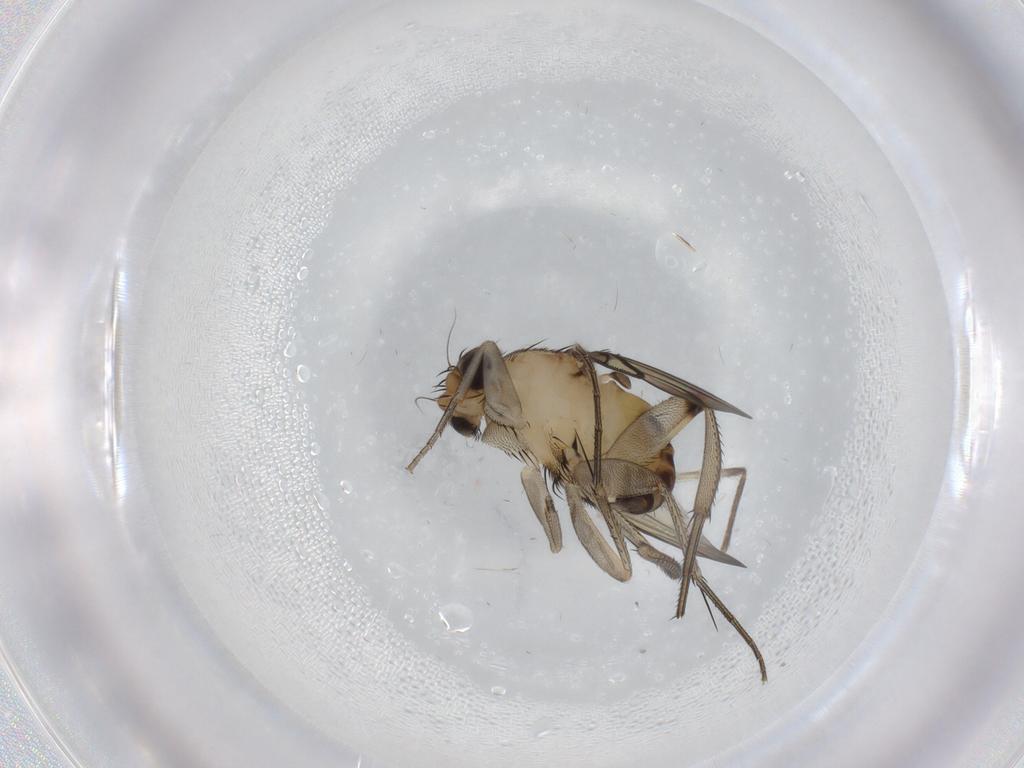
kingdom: Animalia
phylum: Arthropoda
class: Insecta
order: Diptera
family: Phoridae
